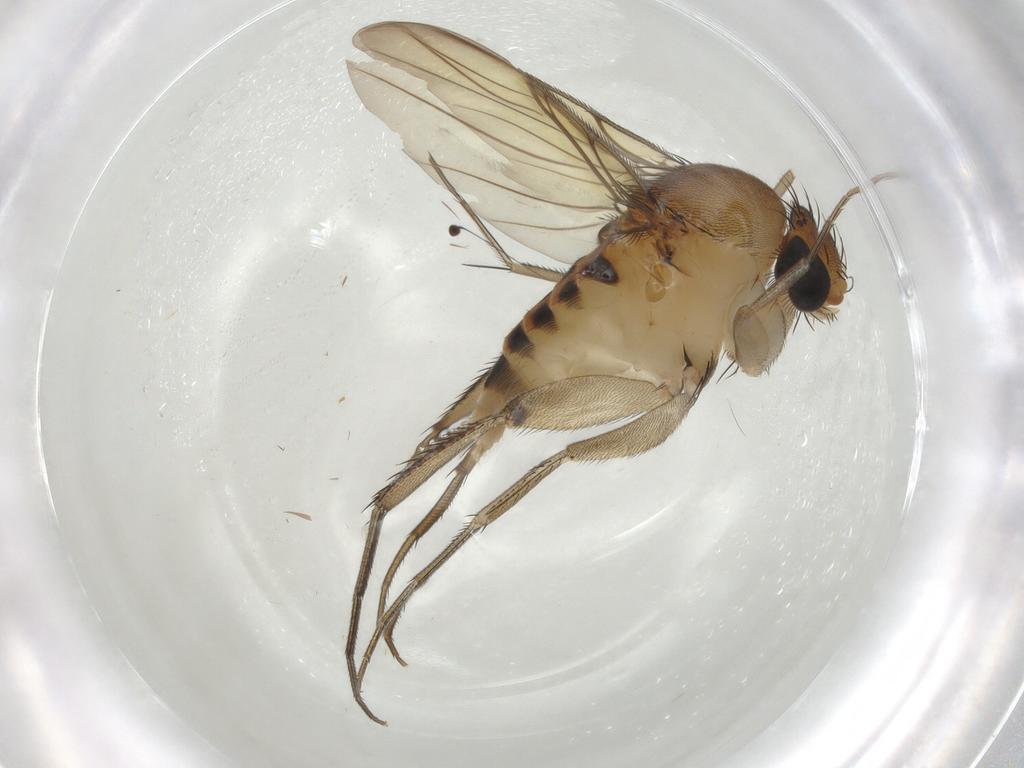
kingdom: Animalia
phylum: Arthropoda
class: Insecta
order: Diptera
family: Phoridae
